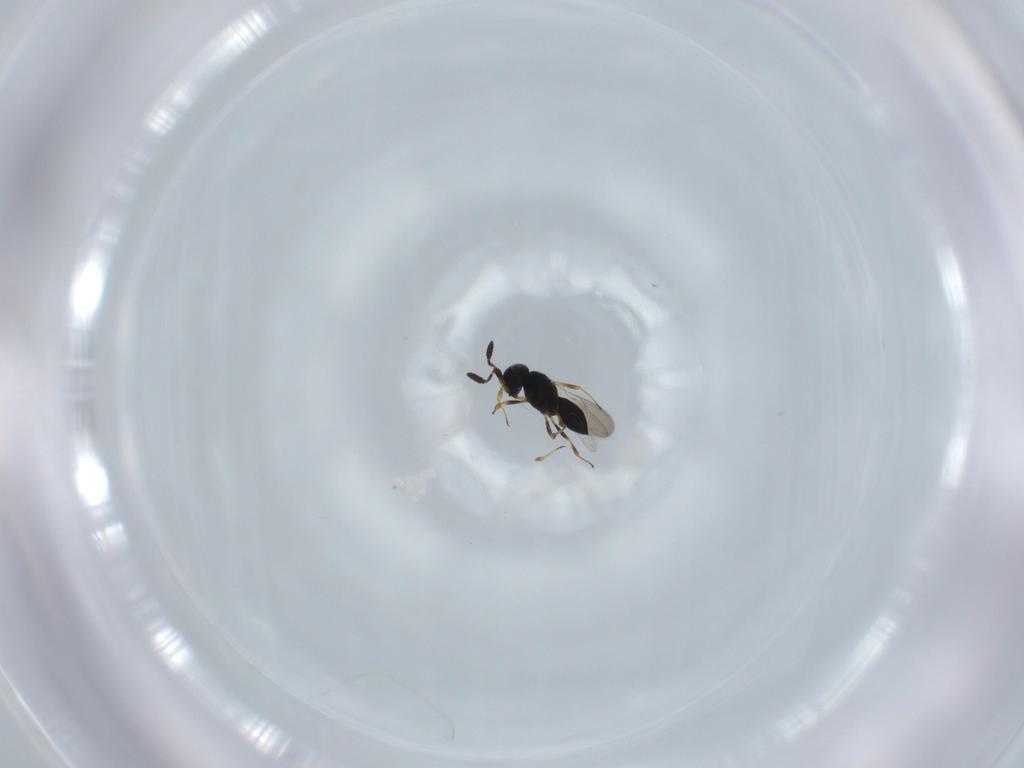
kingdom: Animalia
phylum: Arthropoda
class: Insecta
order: Hymenoptera
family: Scelionidae
